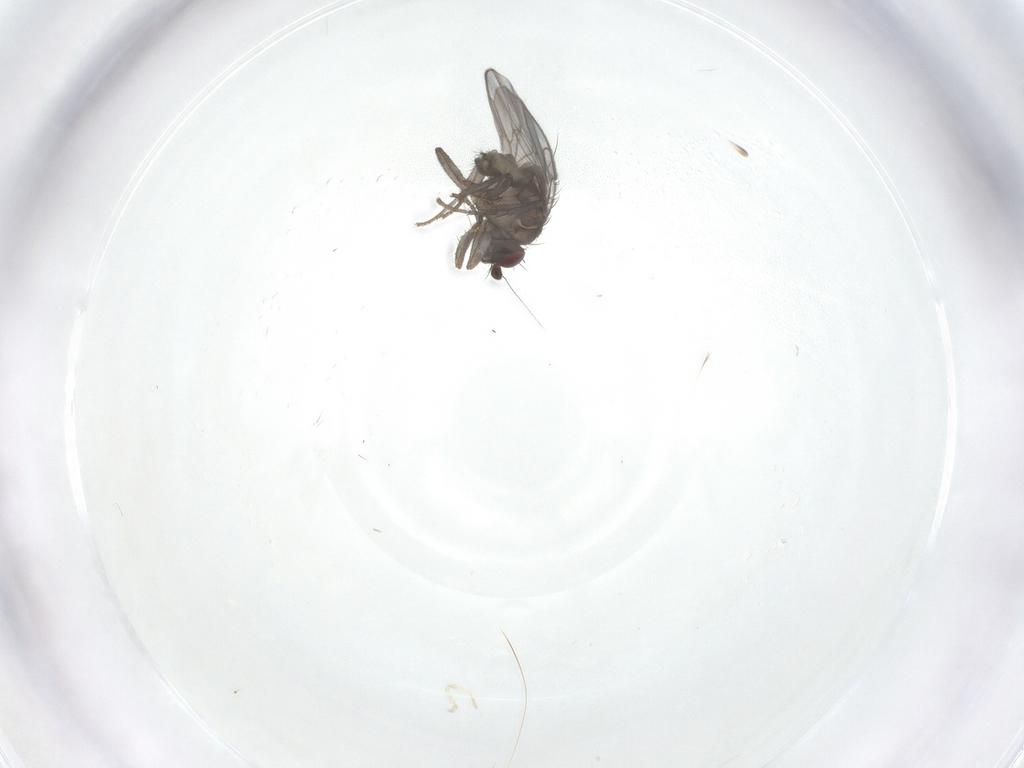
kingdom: Animalia
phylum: Arthropoda
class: Insecta
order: Diptera
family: Sphaeroceridae
